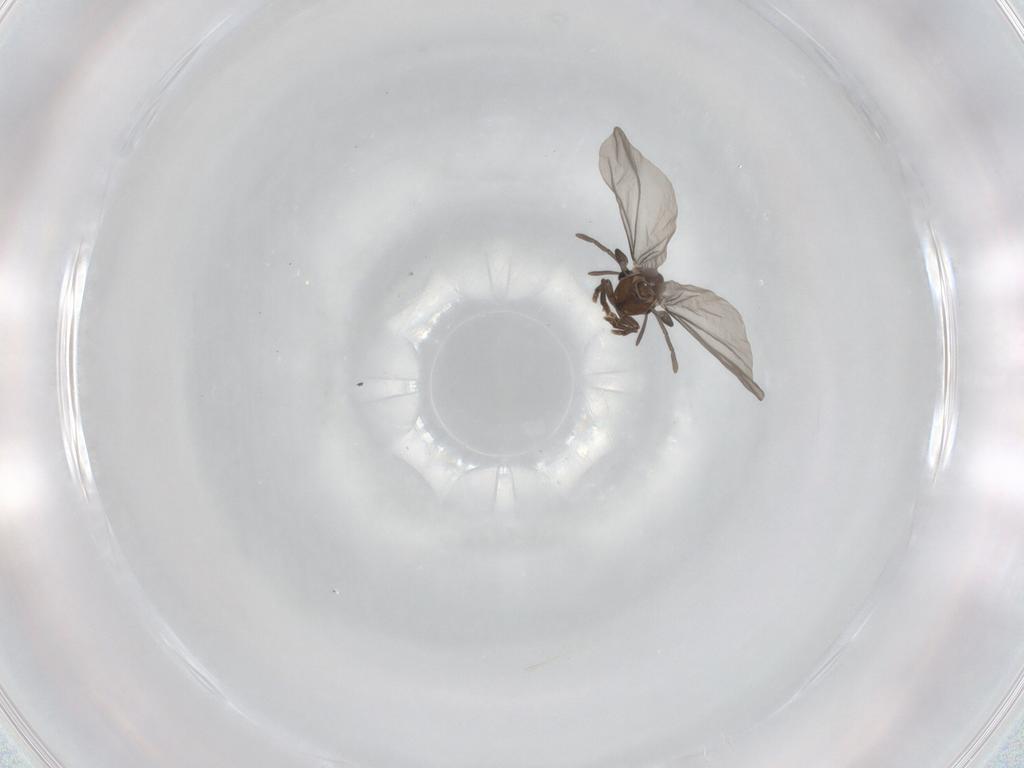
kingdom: Animalia
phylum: Arthropoda
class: Insecta
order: Strepsiptera
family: Myrmecolacidae
